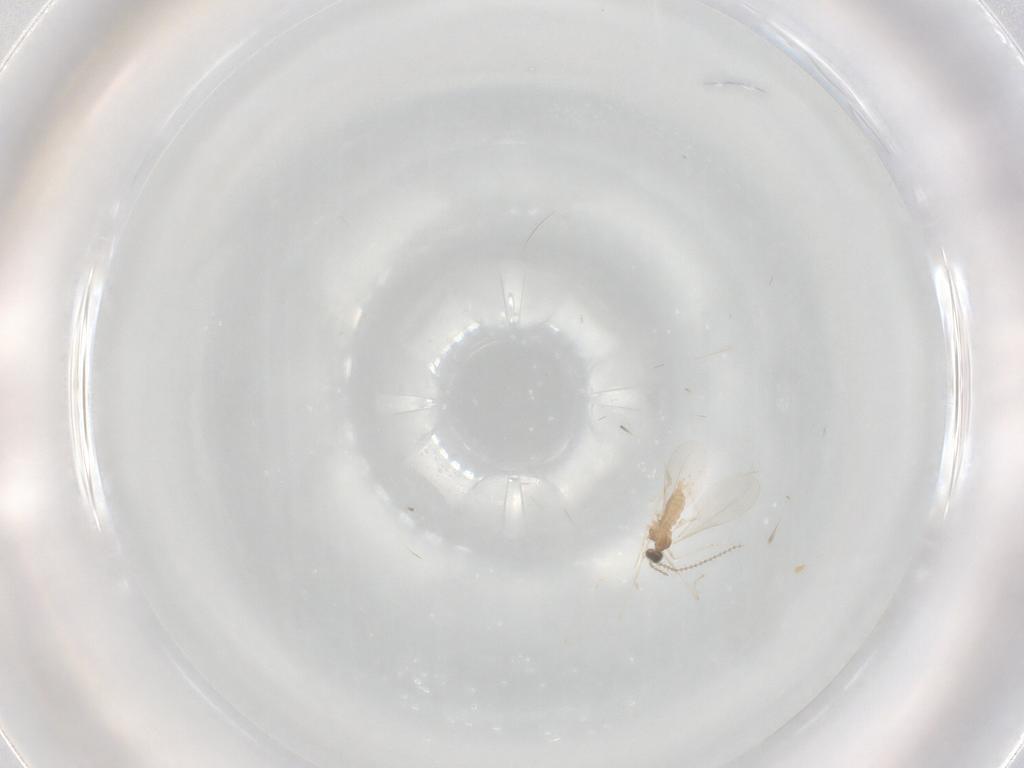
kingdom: Animalia
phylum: Arthropoda
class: Insecta
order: Diptera
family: Cecidomyiidae
